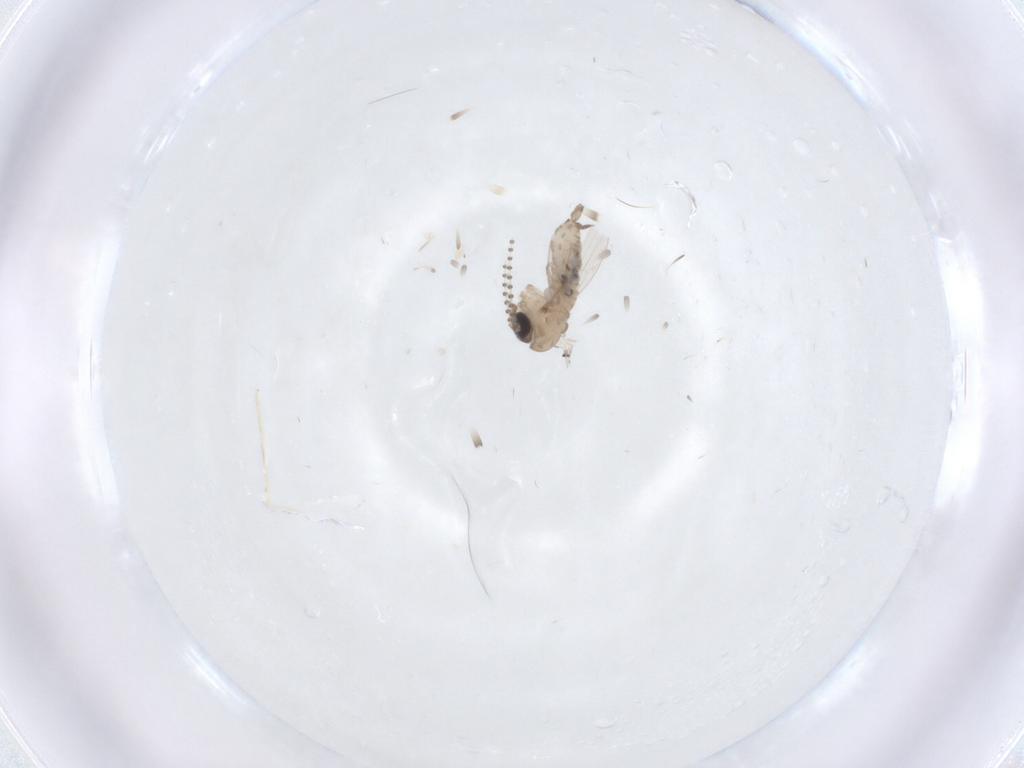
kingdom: Animalia
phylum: Arthropoda
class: Insecta
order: Diptera
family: Psychodidae
